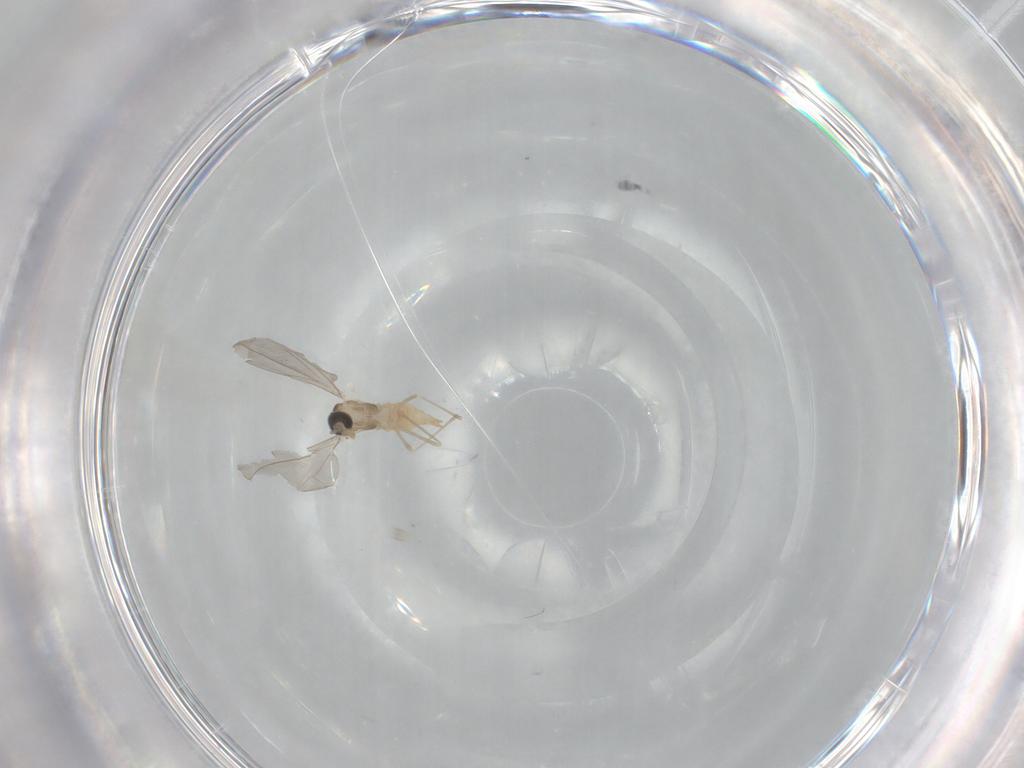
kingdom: Animalia
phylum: Arthropoda
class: Insecta
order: Diptera
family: Cecidomyiidae
